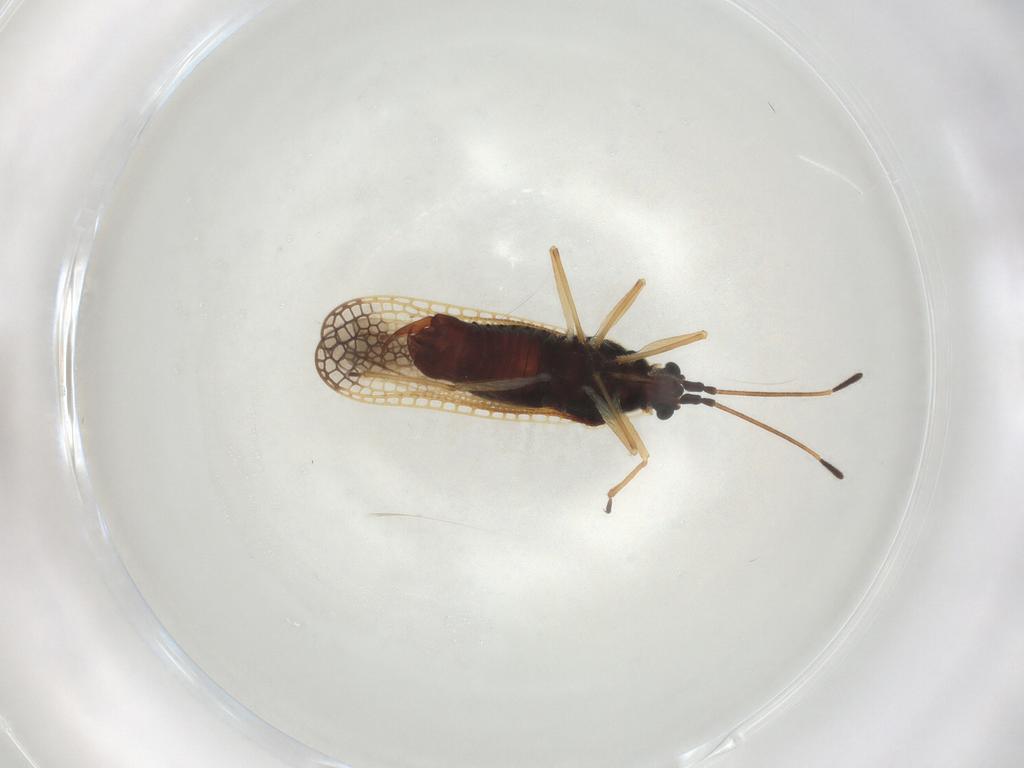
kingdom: Animalia
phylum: Arthropoda
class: Insecta
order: Hemiptera
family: Tingidae
